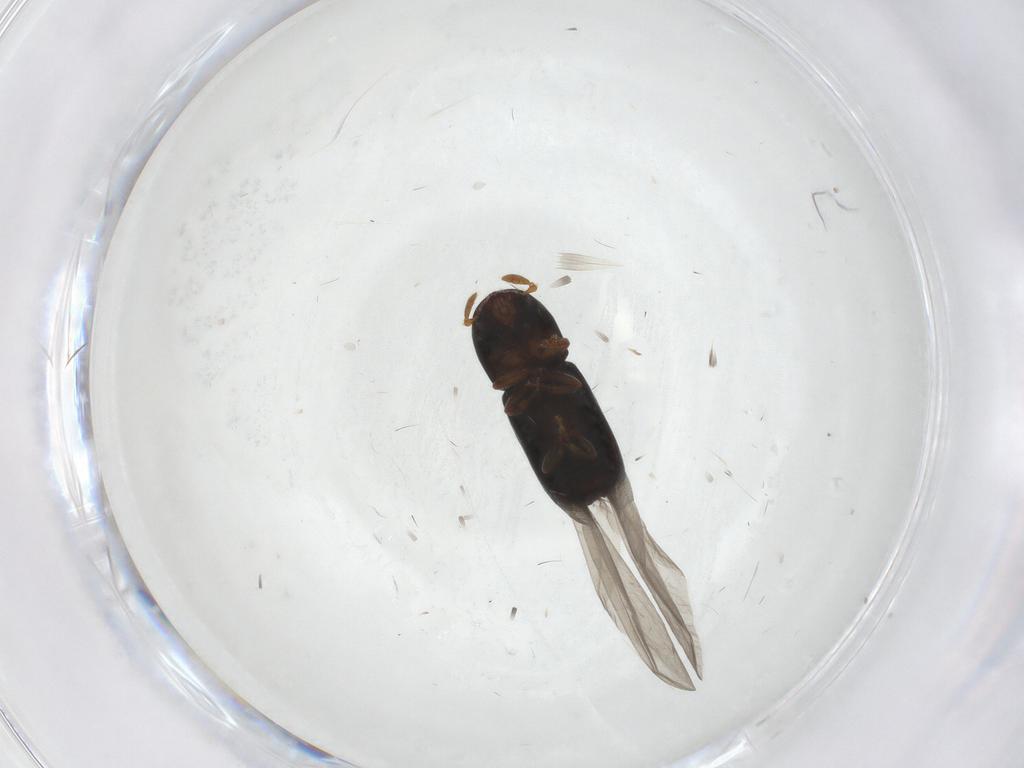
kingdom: Animalia
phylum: Arthropoda
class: Insecta
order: Coleoptera
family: Curculionidae
